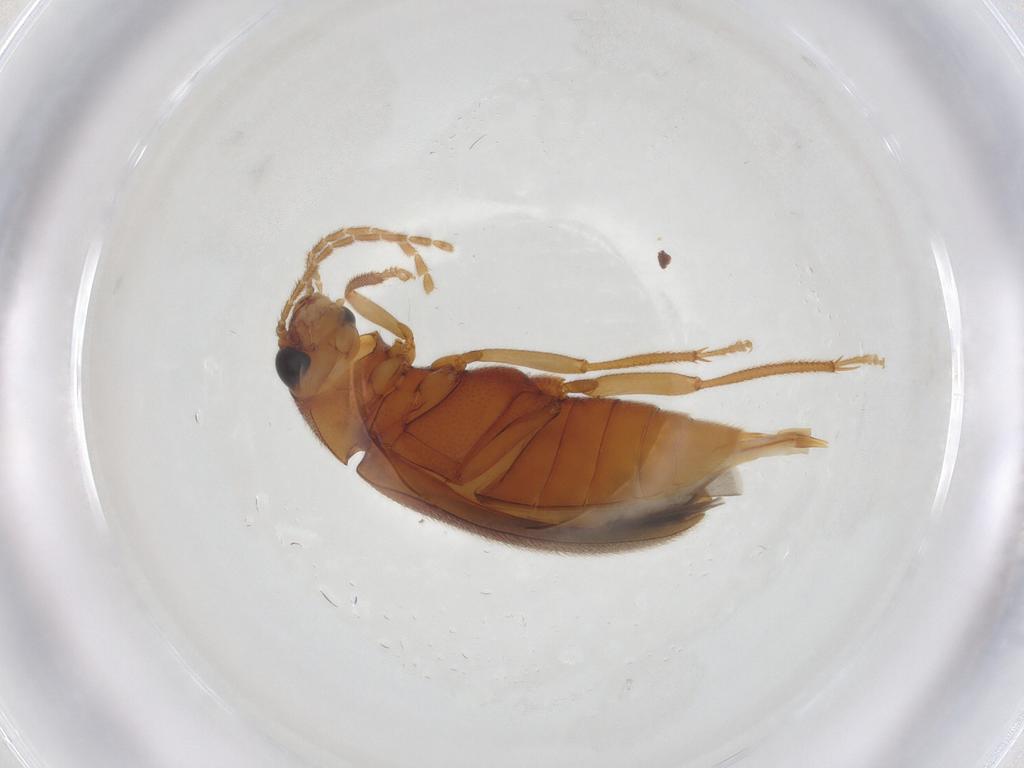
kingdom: Animalia
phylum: Arthropoda
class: Insecta
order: Coleoptera
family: Ptilodactylidae
